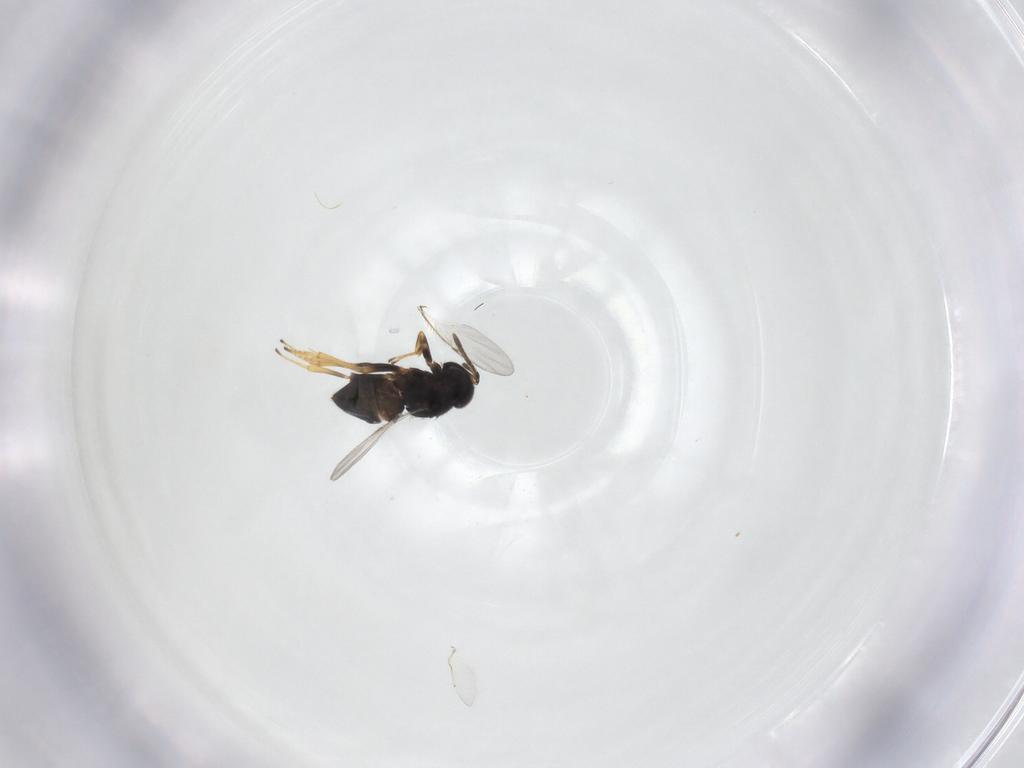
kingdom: Animalia
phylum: Arthropoda
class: Insecta
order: Hymenoptera
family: Encyrtidae
